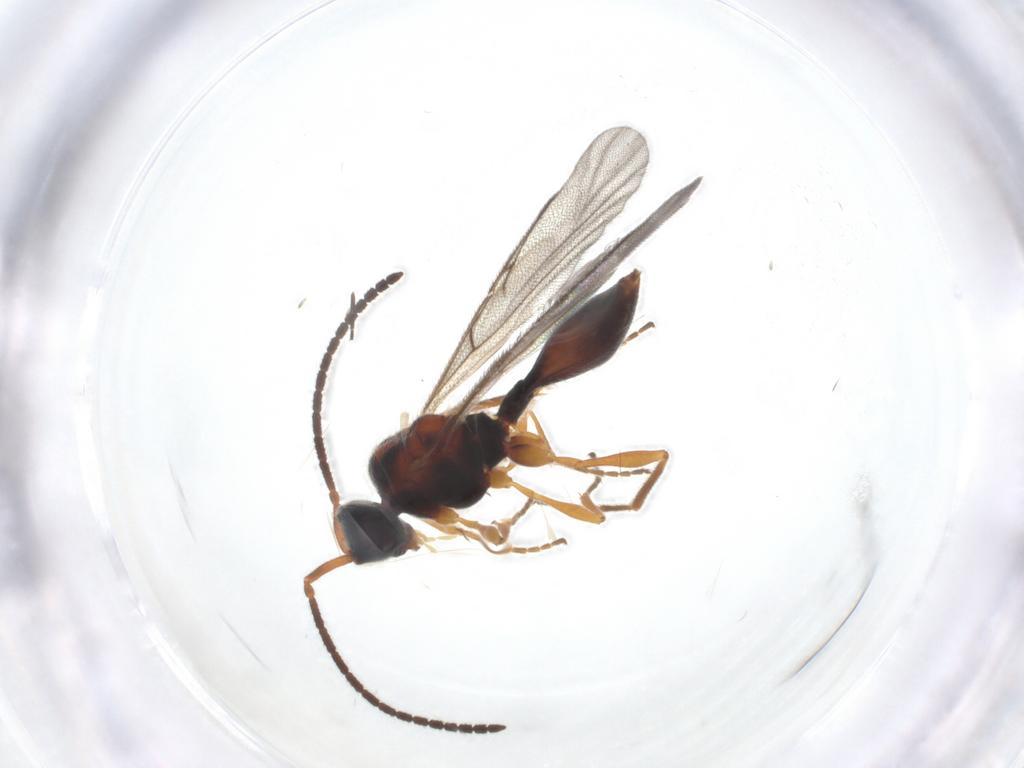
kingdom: Animalia
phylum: Arthropoda
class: Insecta
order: Hymenoptera
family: Diapriidae
